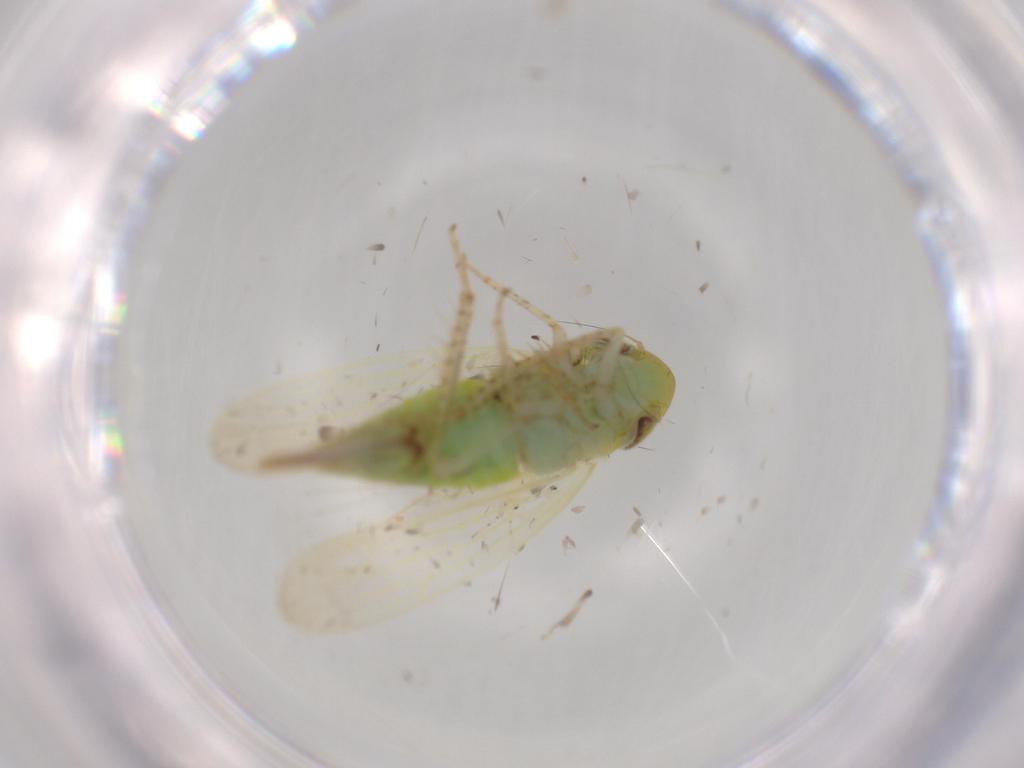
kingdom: Animalia
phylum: Arthropoda
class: Insecta
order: Hemiptera
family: Cicadellidae
